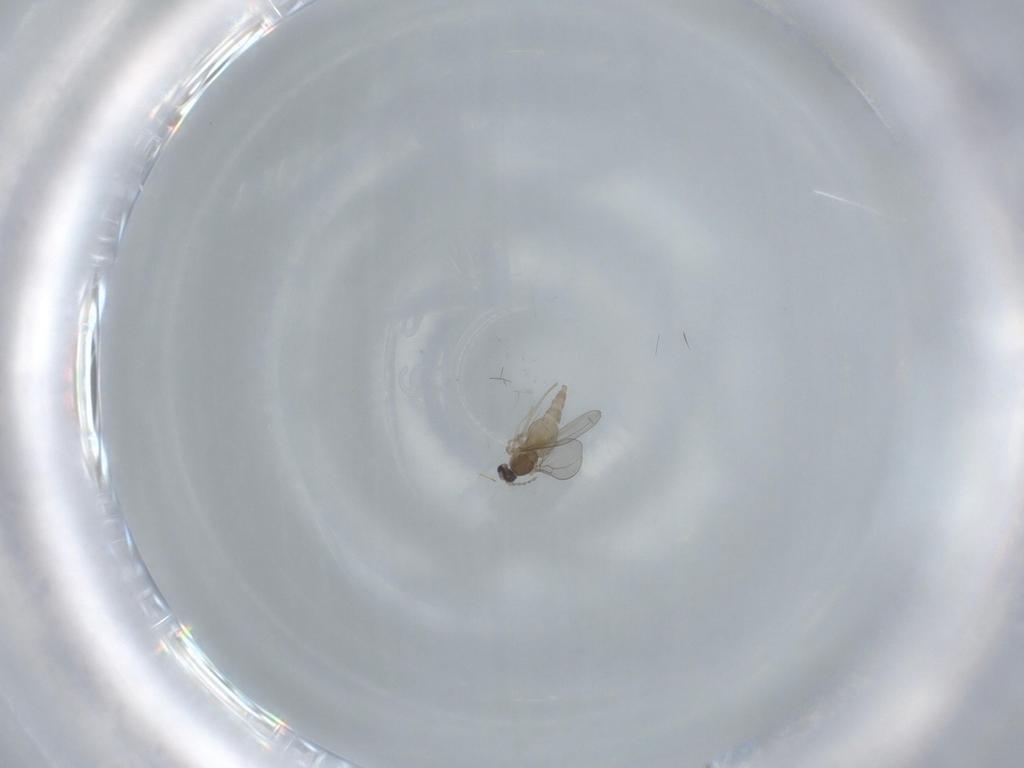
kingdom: Animalia
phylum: Arthropoda
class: Insecta
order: Diptera
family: Cecidomyiidae
